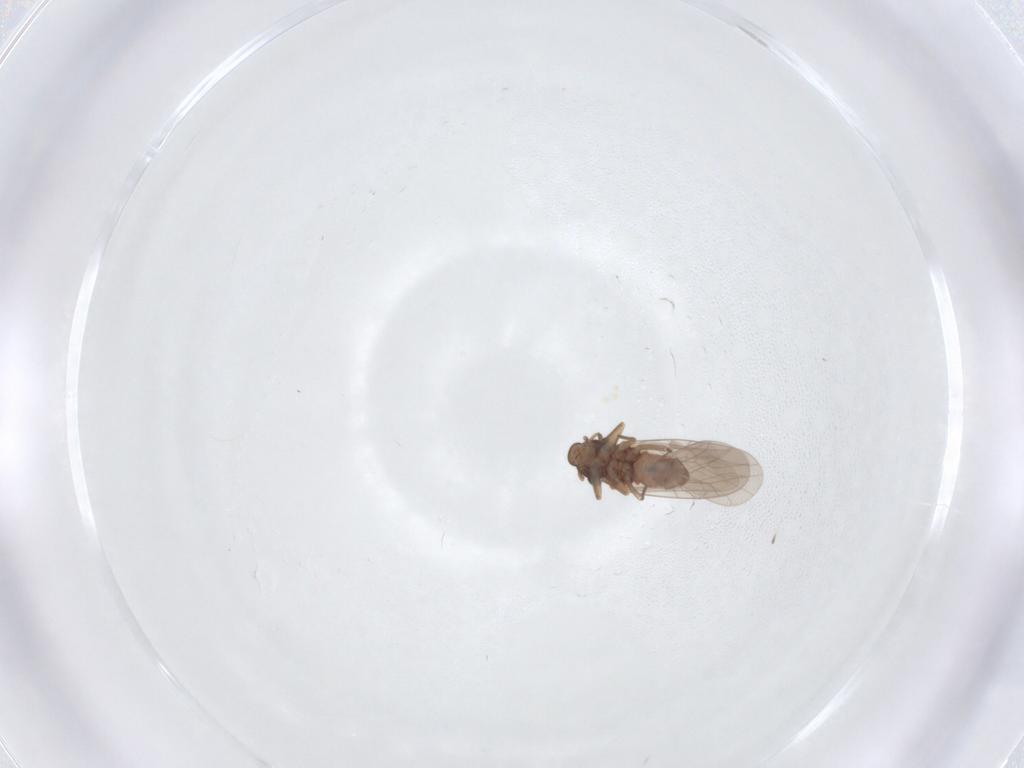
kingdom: Animalia
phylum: Arthropoda
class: Insecta
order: Psocodea
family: Lepidopsocidae
